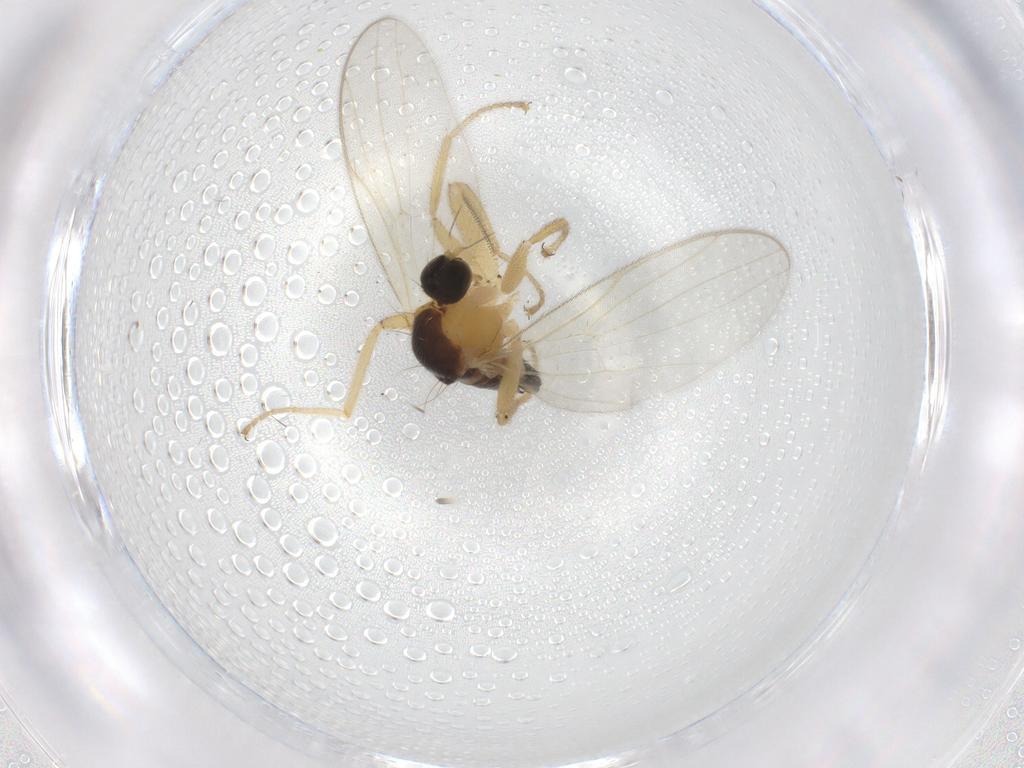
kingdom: Animalia
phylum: Arthropoda
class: Insecta
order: Diptera
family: Hybotidae
